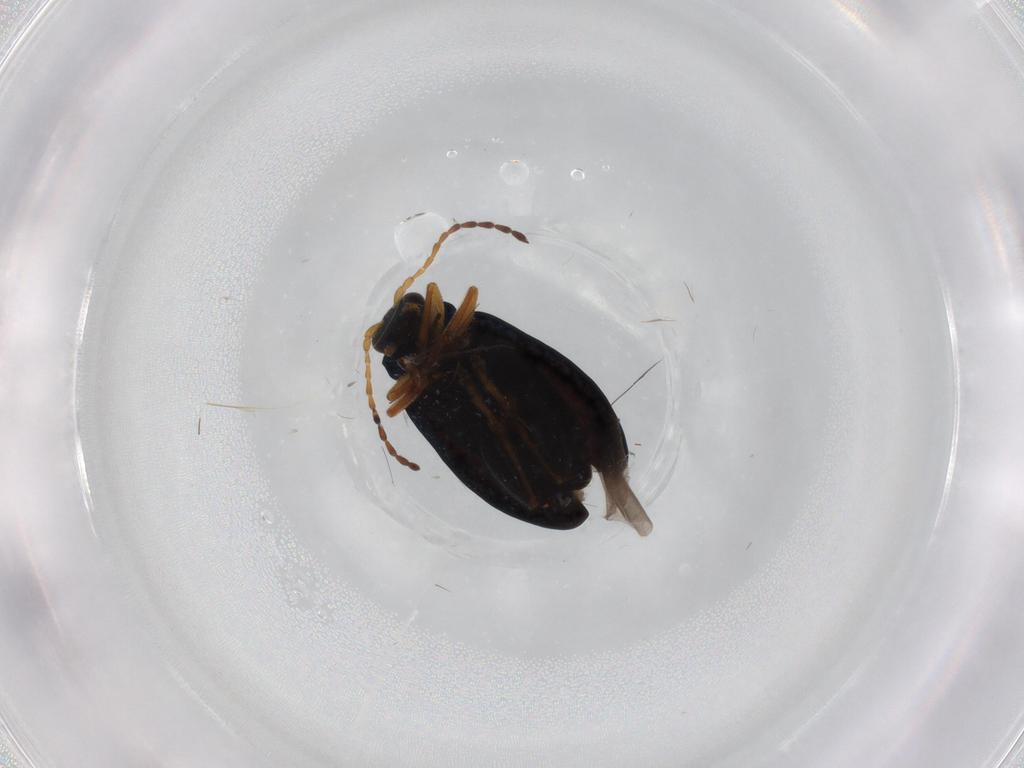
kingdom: Animalia
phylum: Arthropoda
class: Insecta
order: Coleoptera
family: Chrysomelidae
